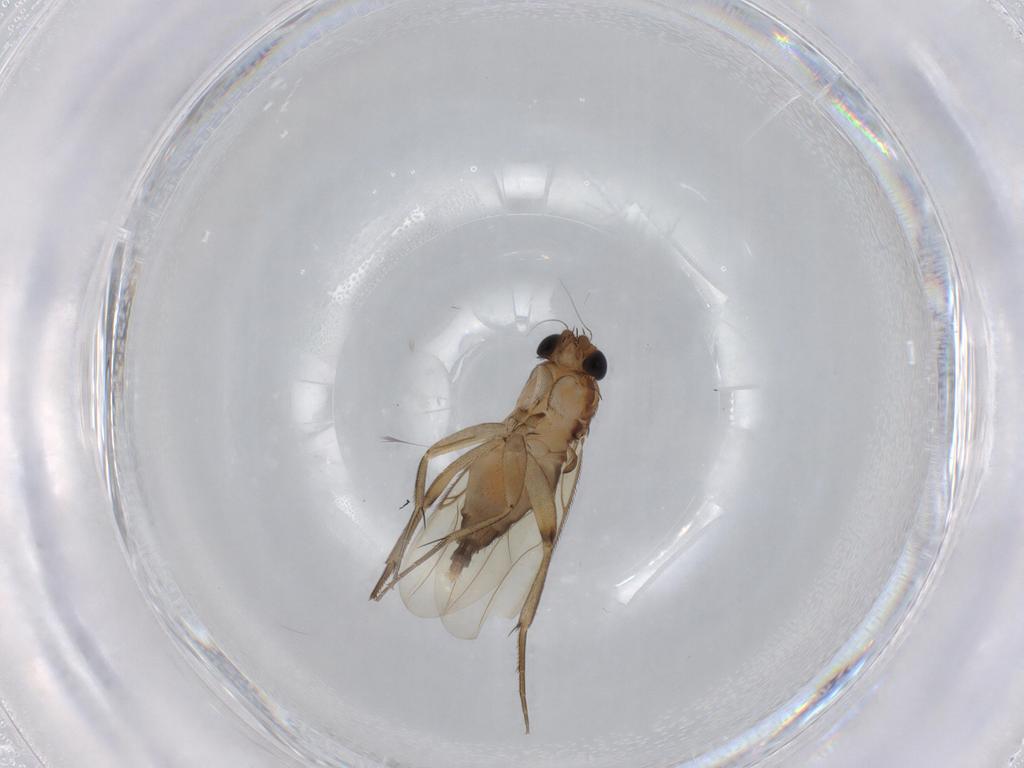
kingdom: Animalia
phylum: Arthropoda
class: Insecta
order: Diptera
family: Phoridae
